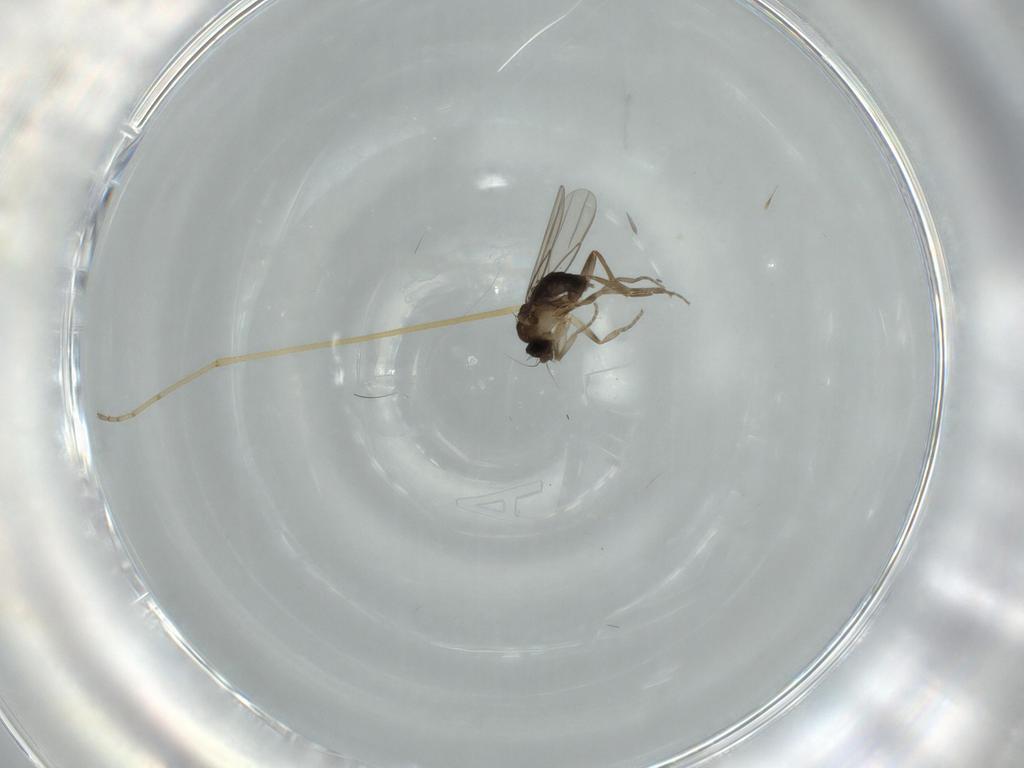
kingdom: Animalia
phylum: Arthropoda
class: Insecta
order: Diptera
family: Phoridae
